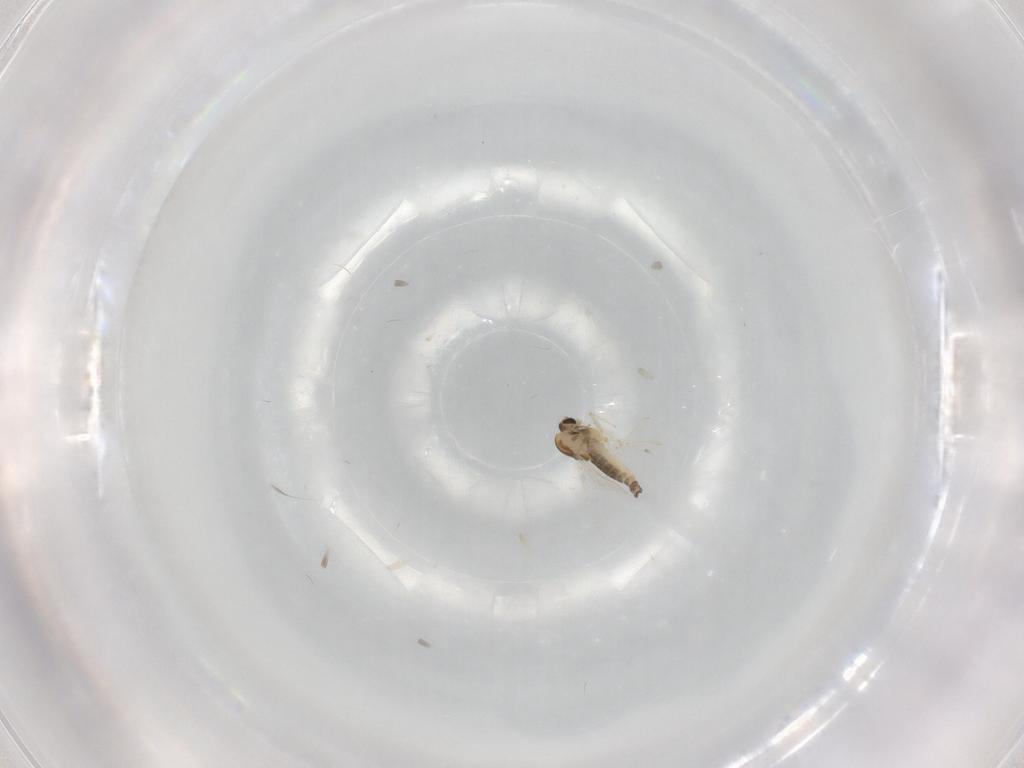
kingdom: Animalia
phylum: Arthropoda
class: Insecta
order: Diptera
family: Chironomidae
